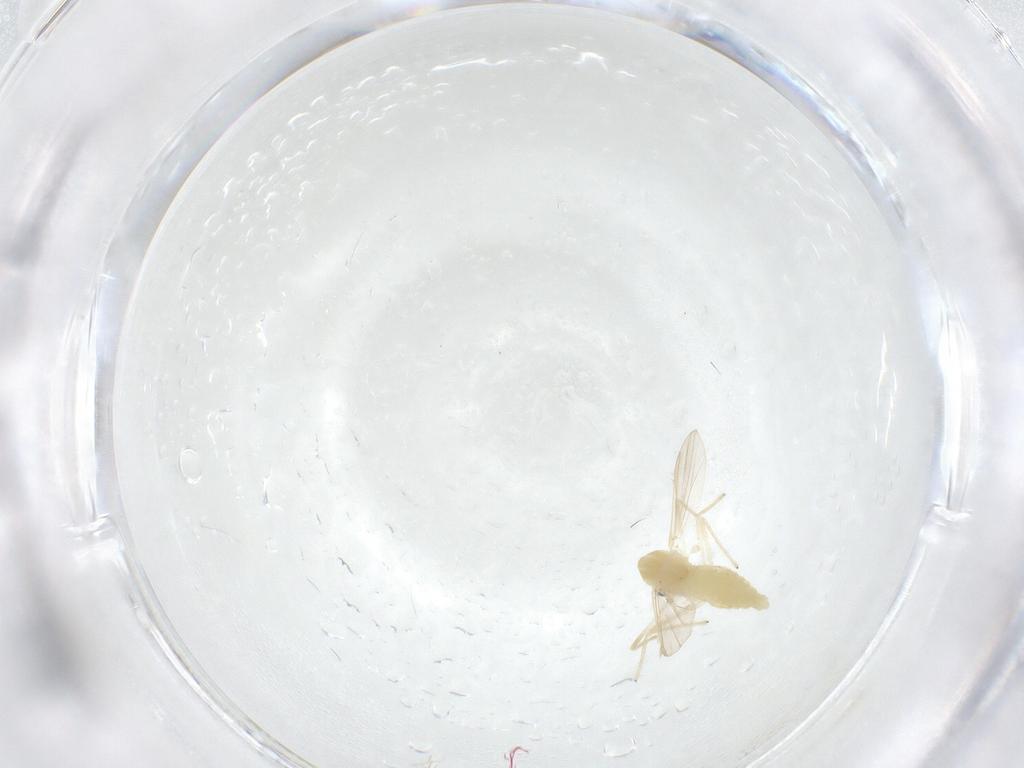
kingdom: Animalia
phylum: Arthropoda
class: Insecta
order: Diptera
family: Chironomidae
